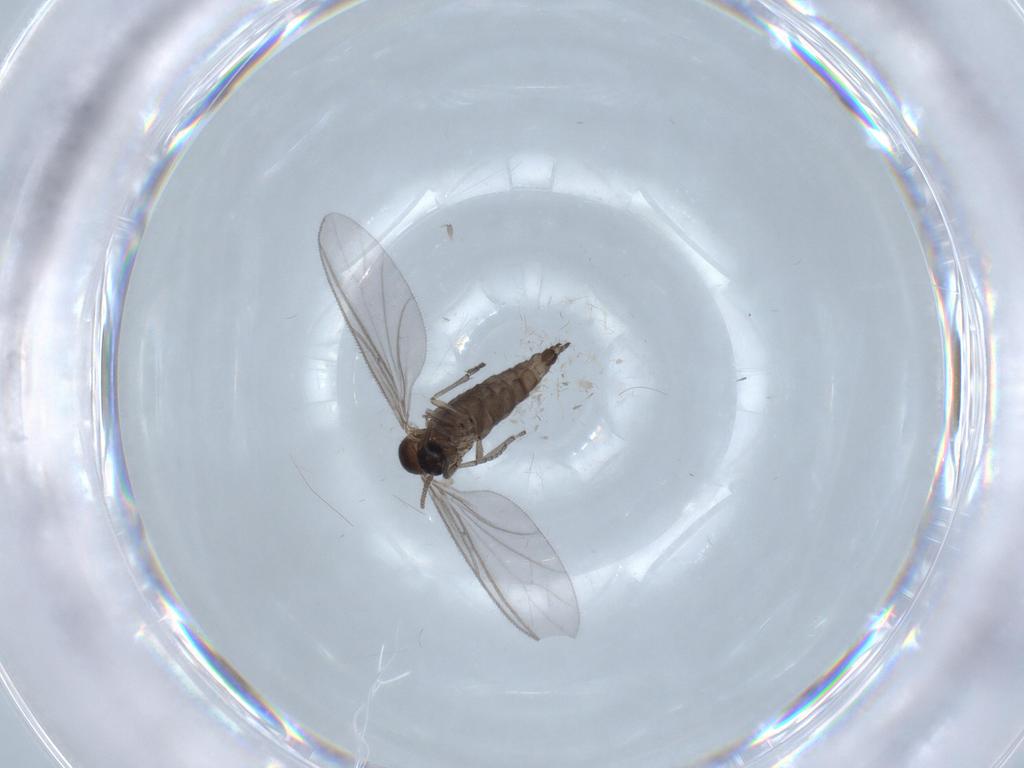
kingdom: Animalia
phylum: Arthropoda
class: Insecta
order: Diptera
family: Sciaridae
